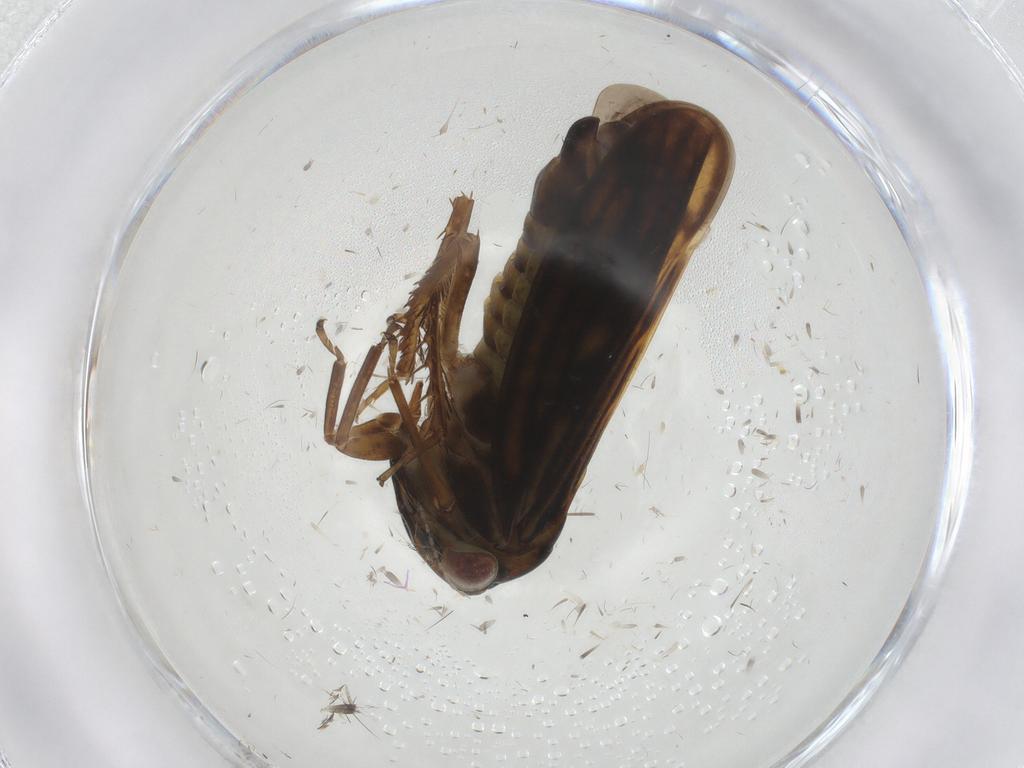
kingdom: Animalia
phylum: Arthropoda
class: Insecta
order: Hemiptera
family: Cicadellidae
